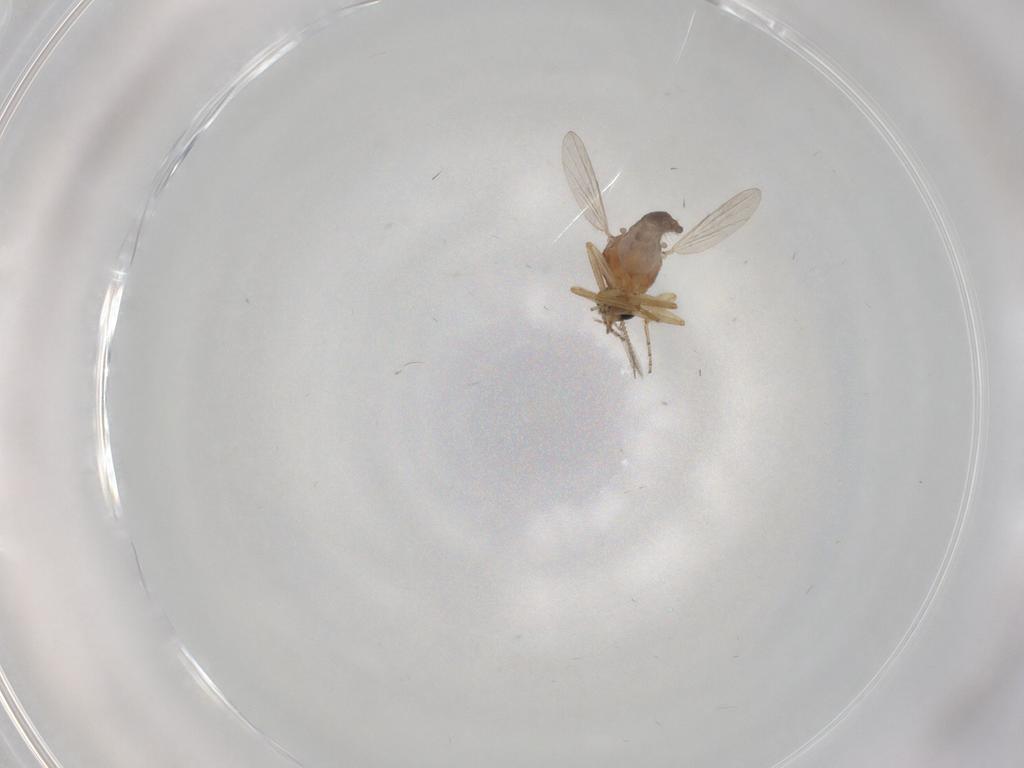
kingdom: Animalia
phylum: Arthropoda
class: Insecta
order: Diptera
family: Ceratopogonidae
